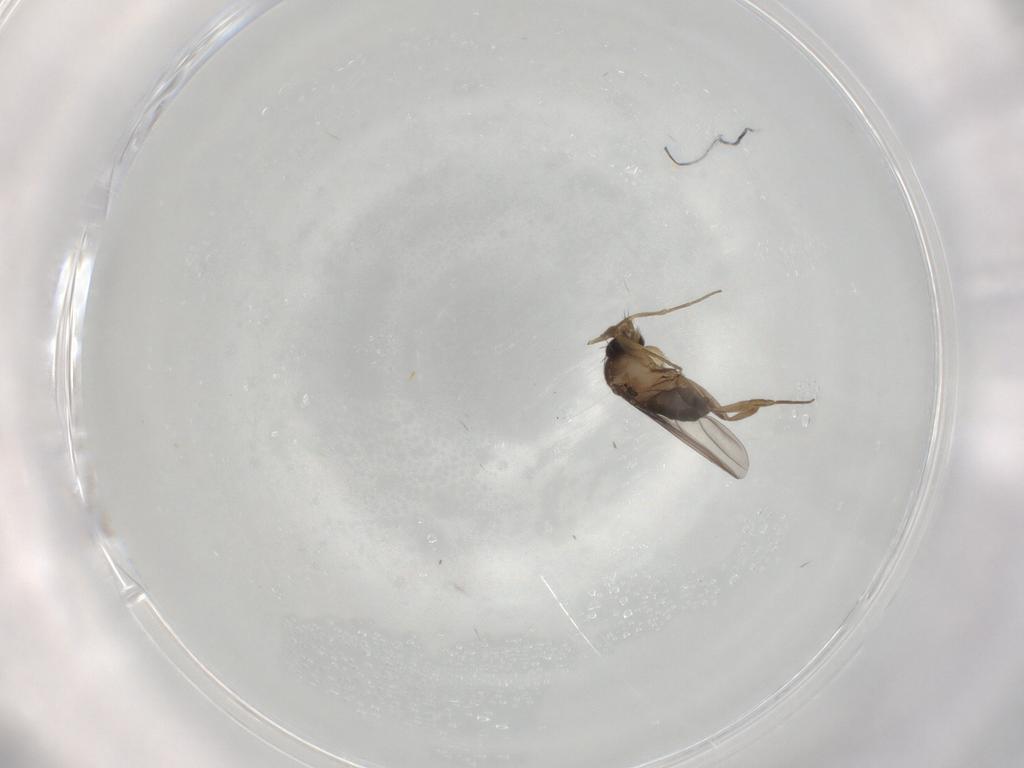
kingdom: Animalia
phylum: Arthropoda
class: Insecta
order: Diptera
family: Phoridae
